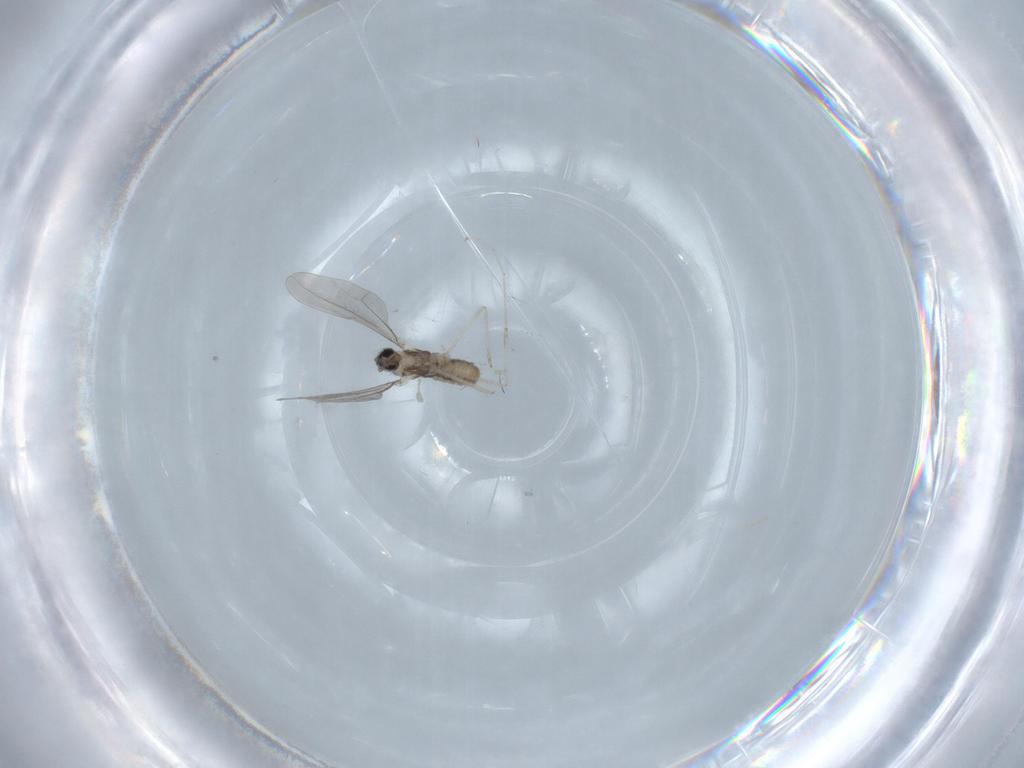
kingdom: Animalia
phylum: Arthropoda
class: Insecta
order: Diptera
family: Cecidomyiidae
